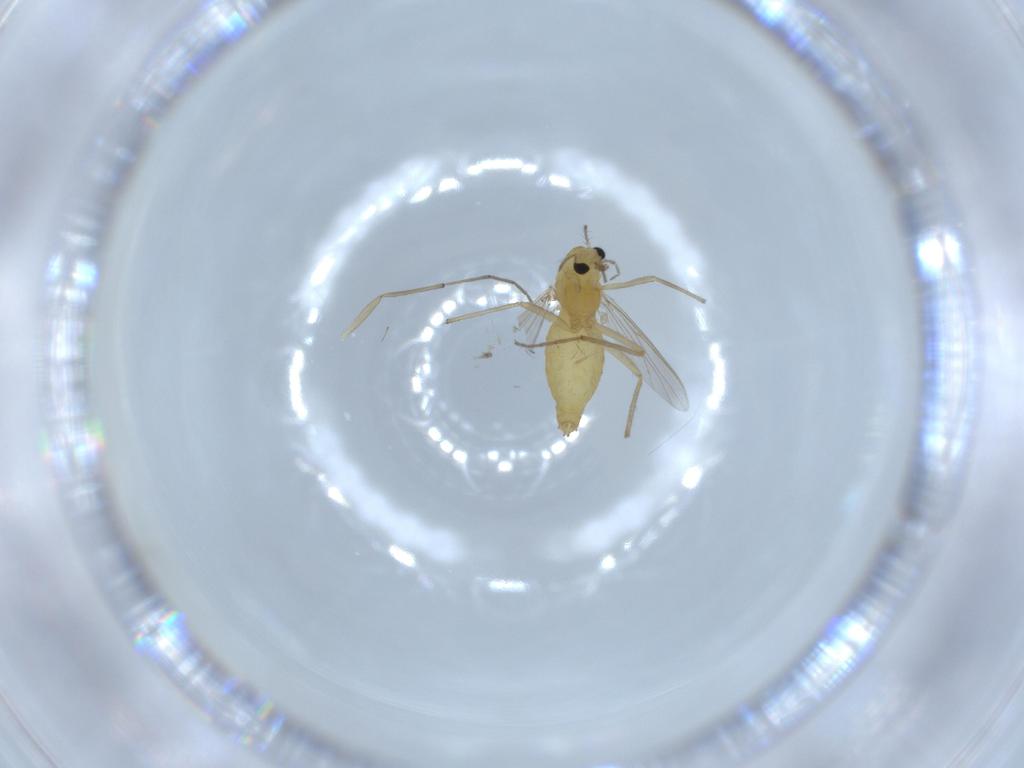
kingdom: Animalia
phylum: Arthropoda
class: Insecta
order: Diptera
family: Chironomidae
